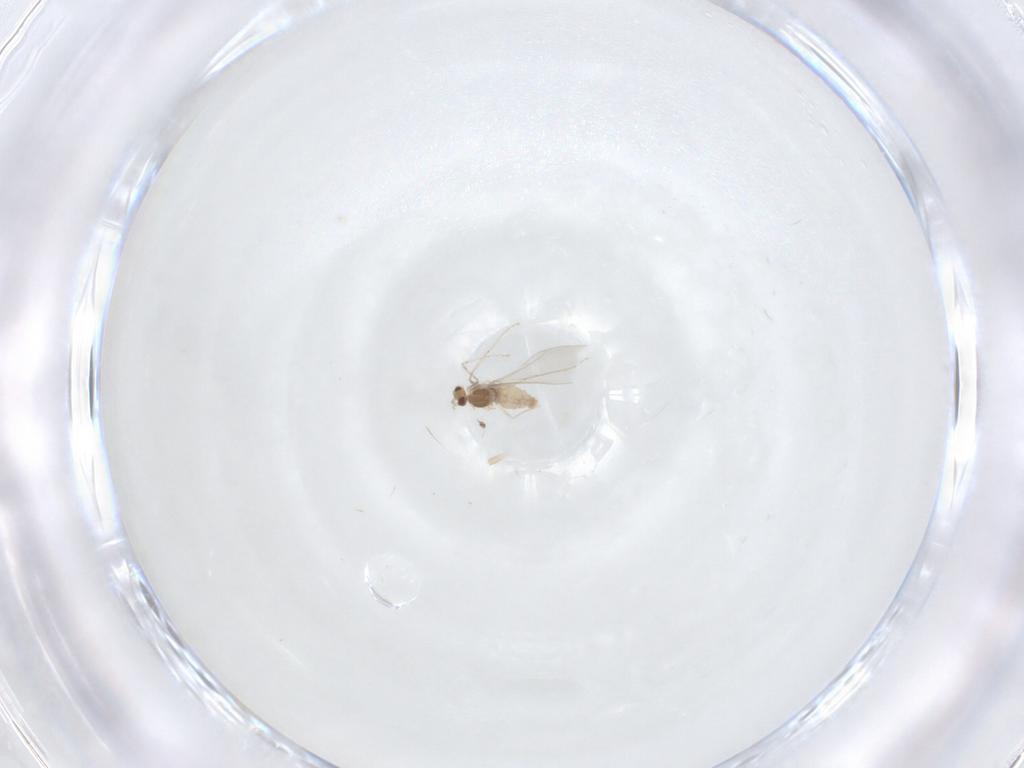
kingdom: Animalia
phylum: Arthropoda
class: Insecta
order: Diptera
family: Cecidomyiidae
